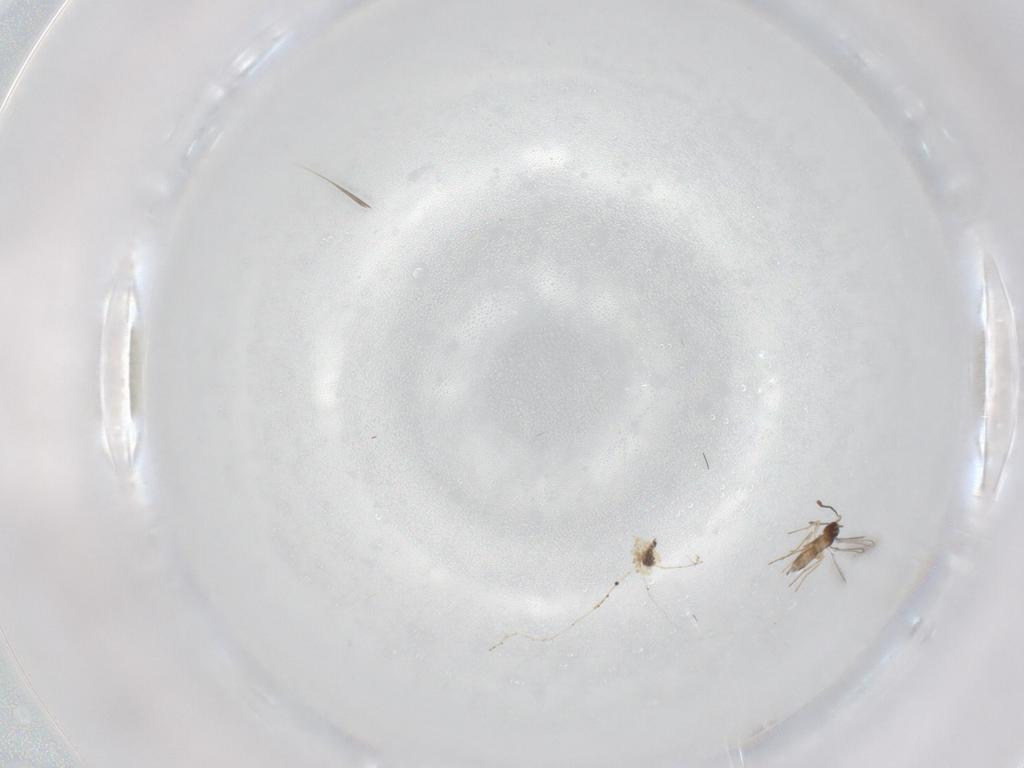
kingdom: Animalia
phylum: Arthropoda
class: Insecta
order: Hymenoptera
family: Mymaridae
